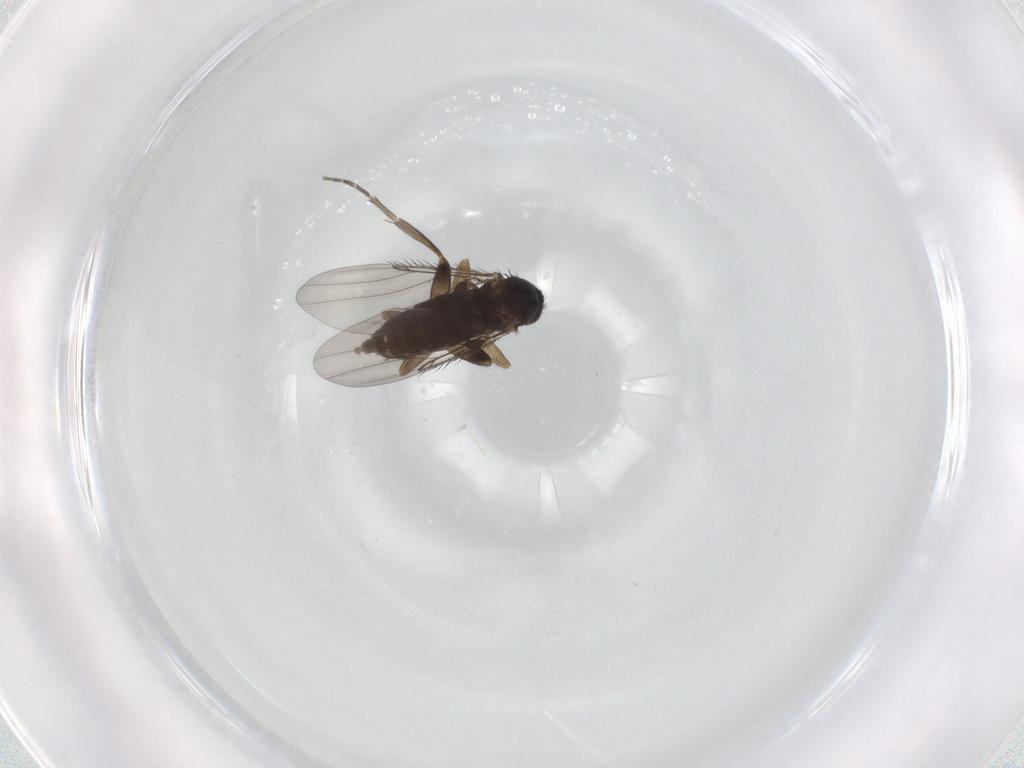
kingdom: Animalia
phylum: Arthropoda
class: Insecta
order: Diptera
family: Phoridae
